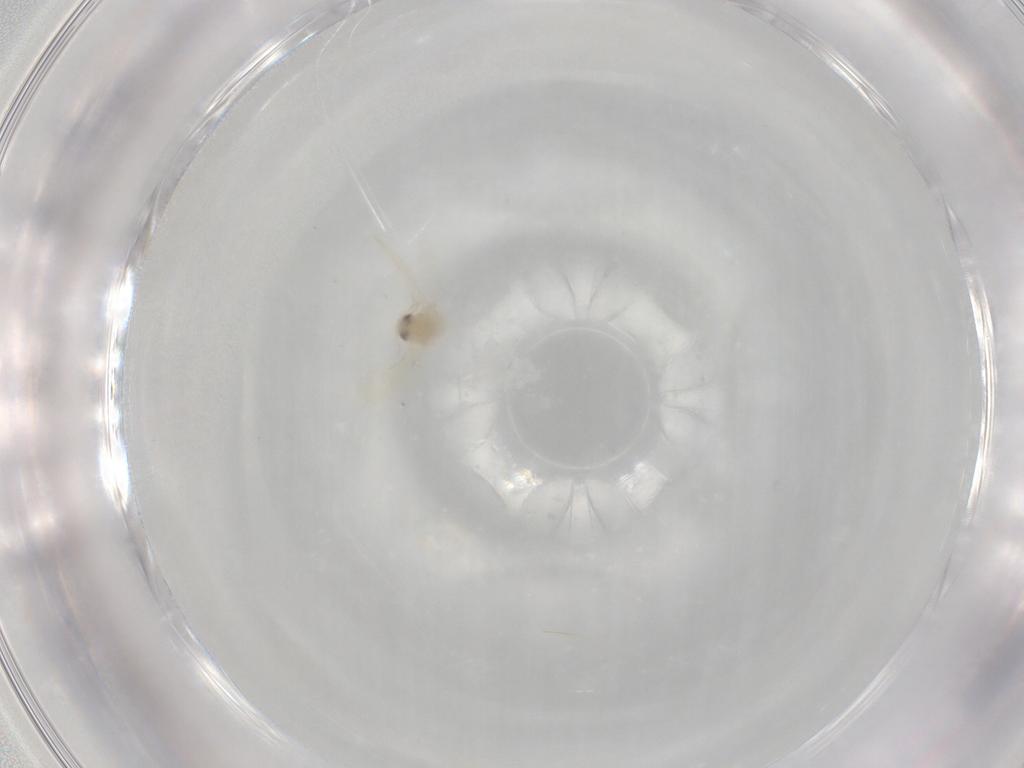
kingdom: Animalia
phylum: Arthropoda
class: Insecta
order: Hemiptera
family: Aleyrodidae
